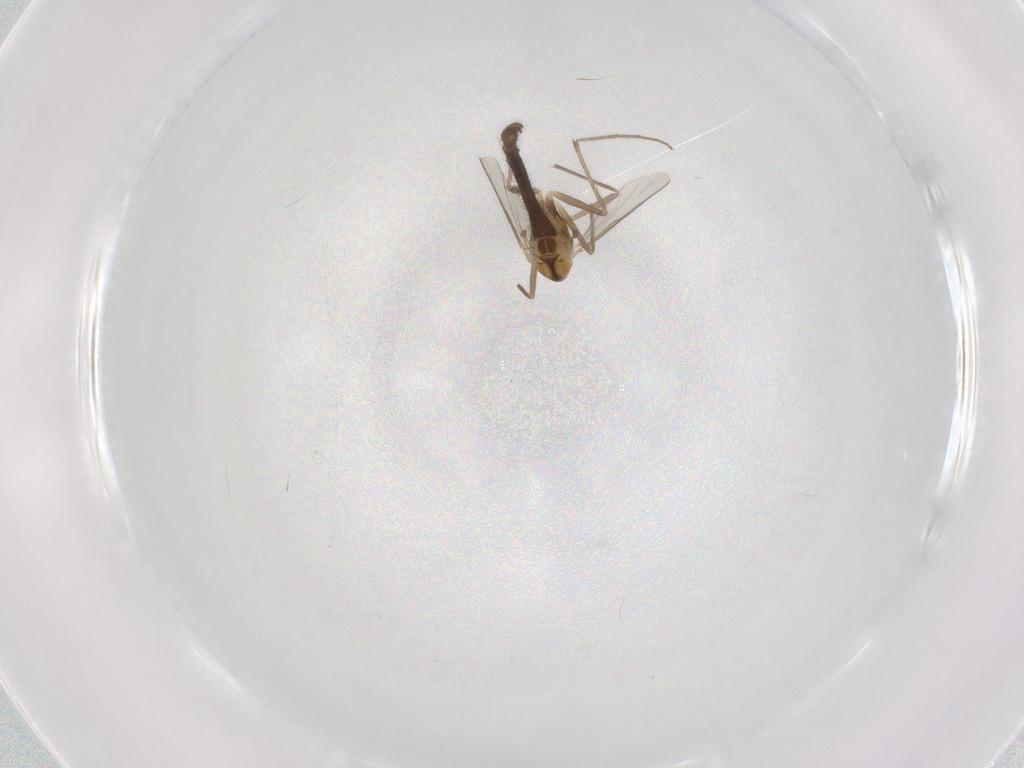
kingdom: Animalia
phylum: Arthropoda
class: Insecta
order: Diptera
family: Chironomidae
